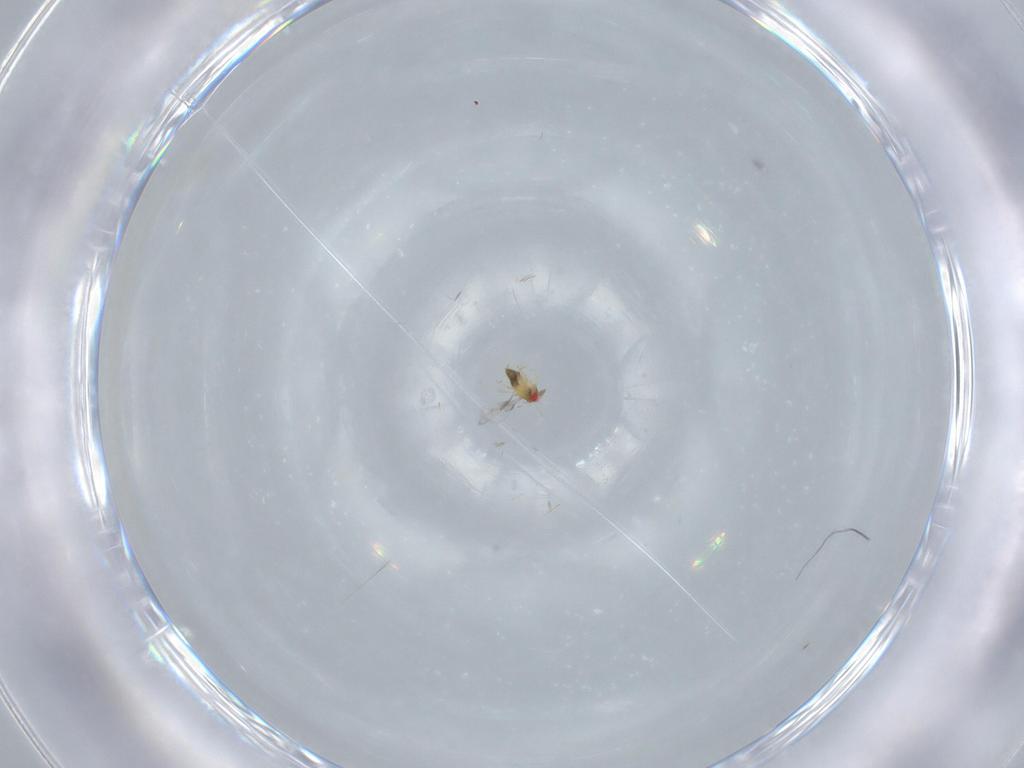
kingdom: Animalia
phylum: Arthropoda
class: Insecta
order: Hymenoptera
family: Trichogrammatidae
